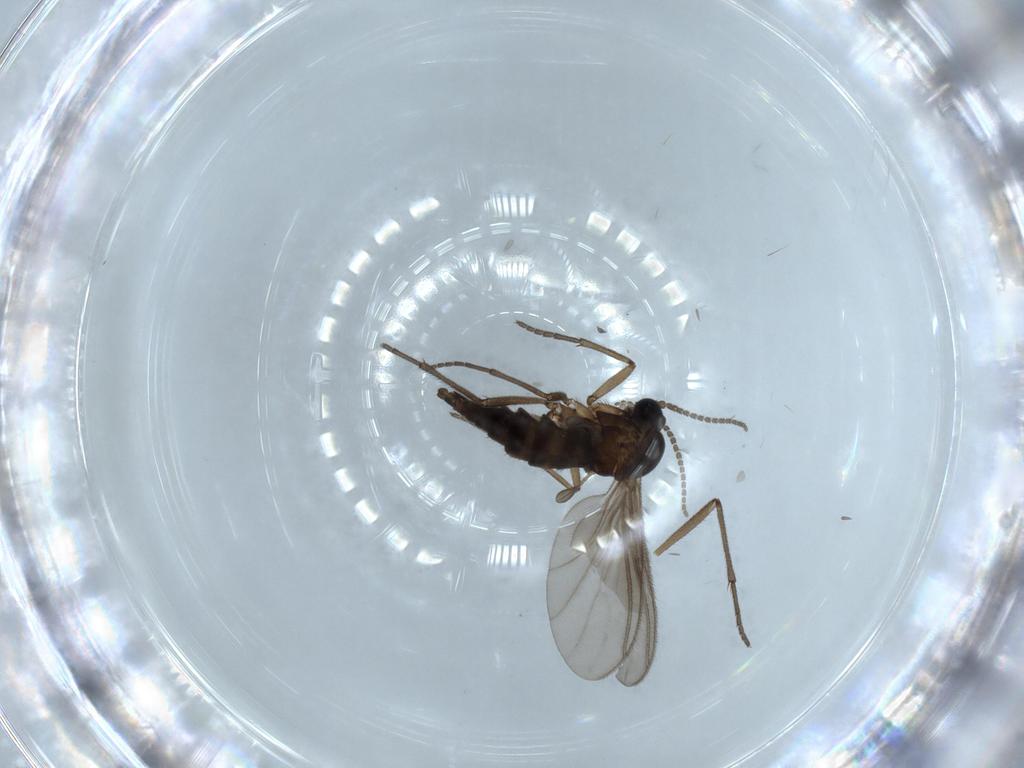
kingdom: Animalia
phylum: Arthropoda
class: Insecta
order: Diptera
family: Sciaridae
